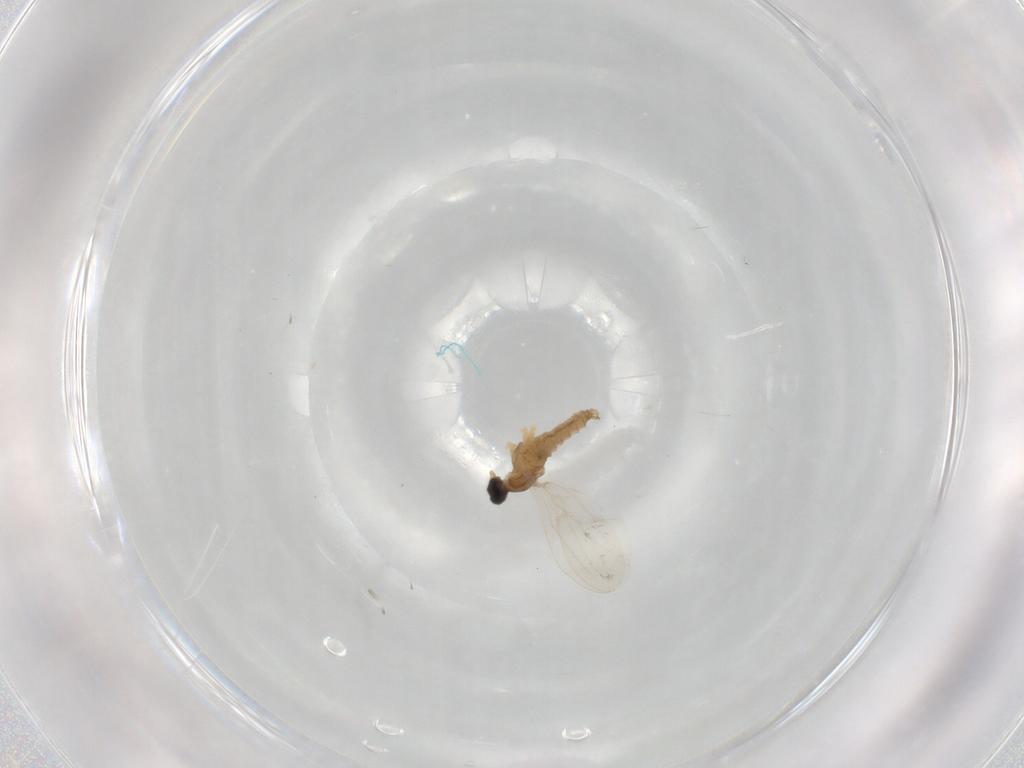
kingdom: Animalia
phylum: Arthropoda
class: Insecta
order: Diptera
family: Cecidomyiidae
